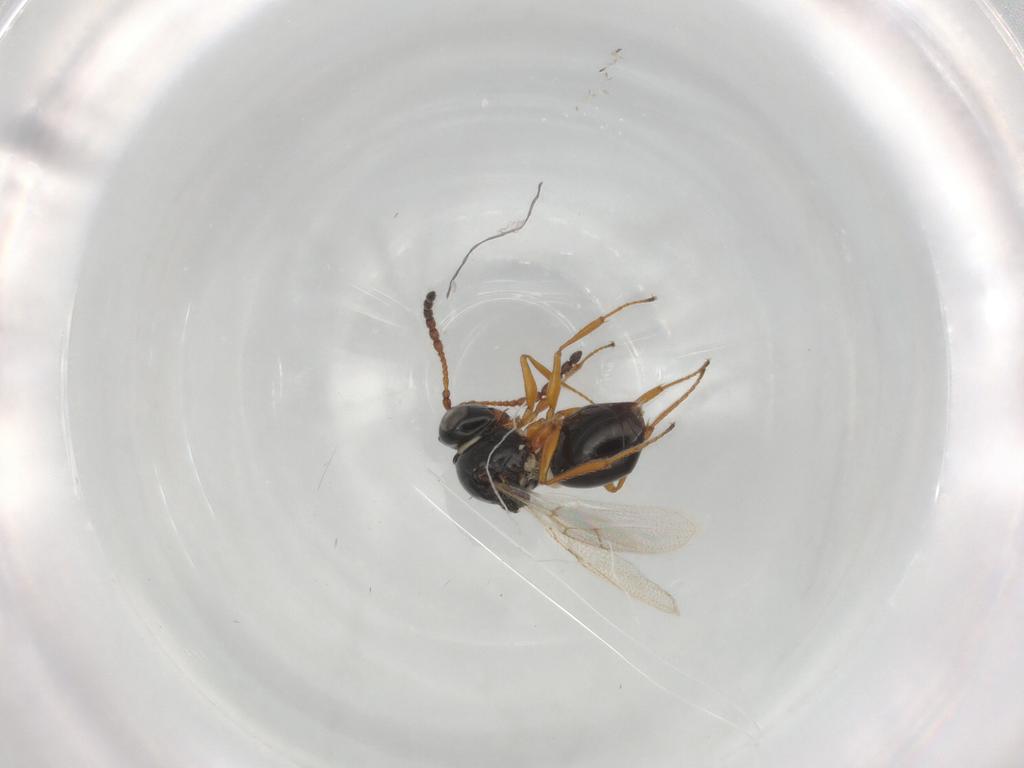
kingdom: Animalia
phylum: Arthropoda
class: Insecta
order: Hymenoptera
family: Figitidae
